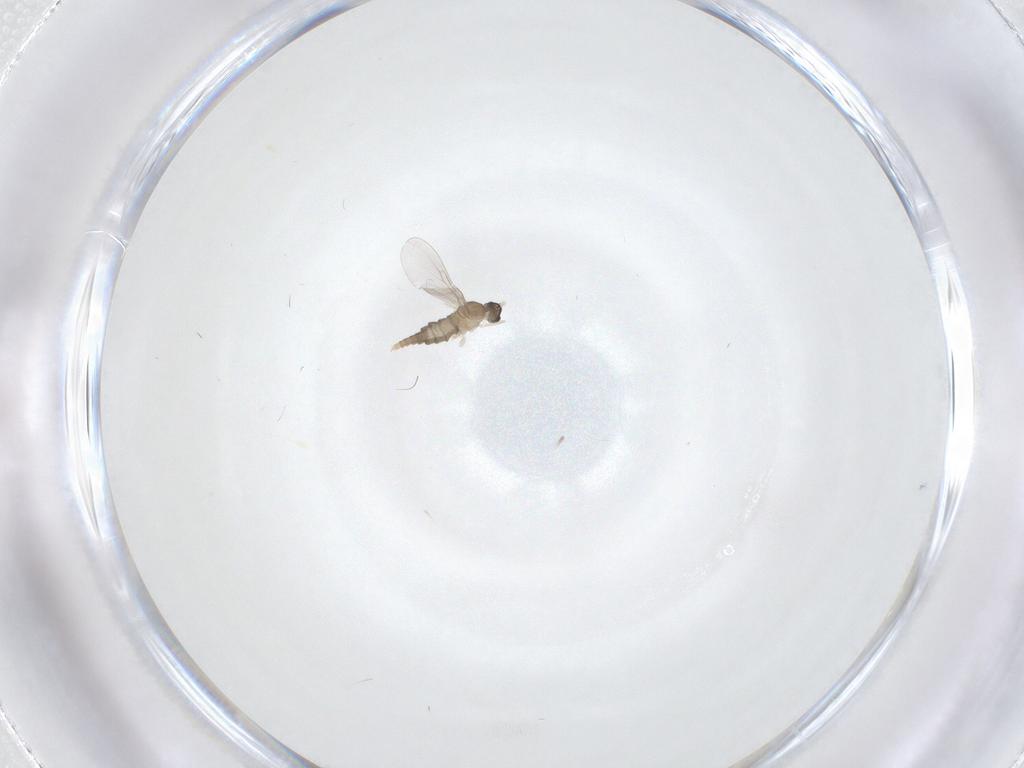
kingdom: Animalia
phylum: Arthropoda
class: Insecta
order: Diptera
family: Cecidomyiidae
